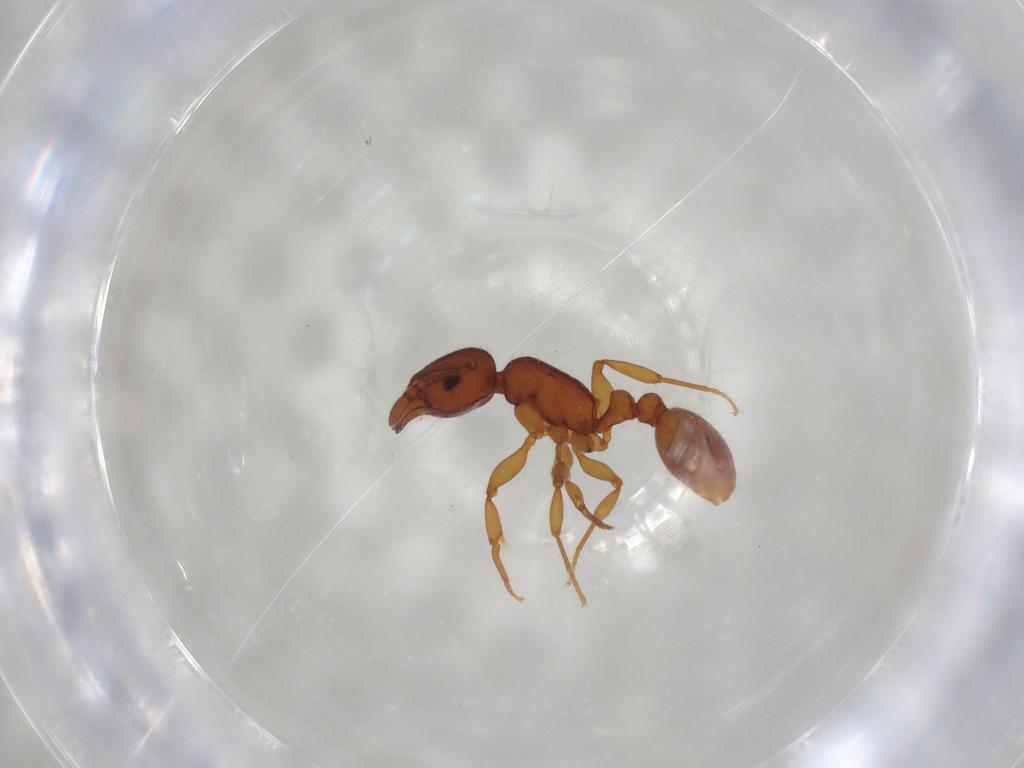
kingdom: Animalia
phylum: Arthropoda
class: Insecta
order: Hymenoptera
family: Formicidae
